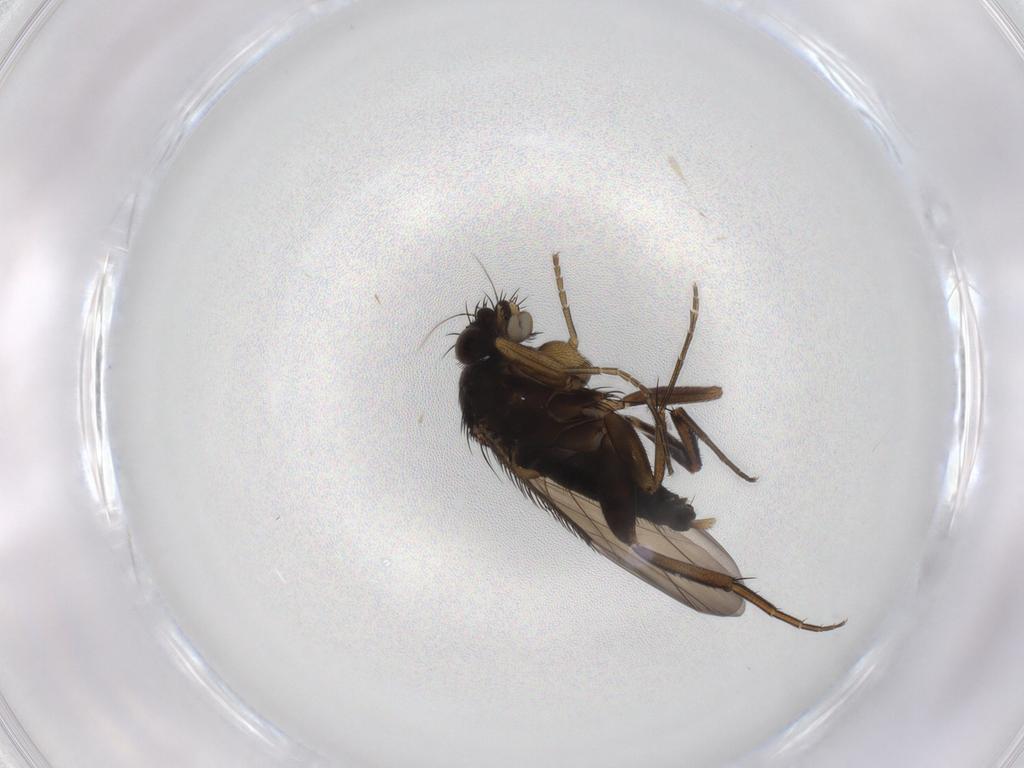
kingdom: Animalia
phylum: Arthropoda
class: Insecta
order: Diptera
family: Phoridae
